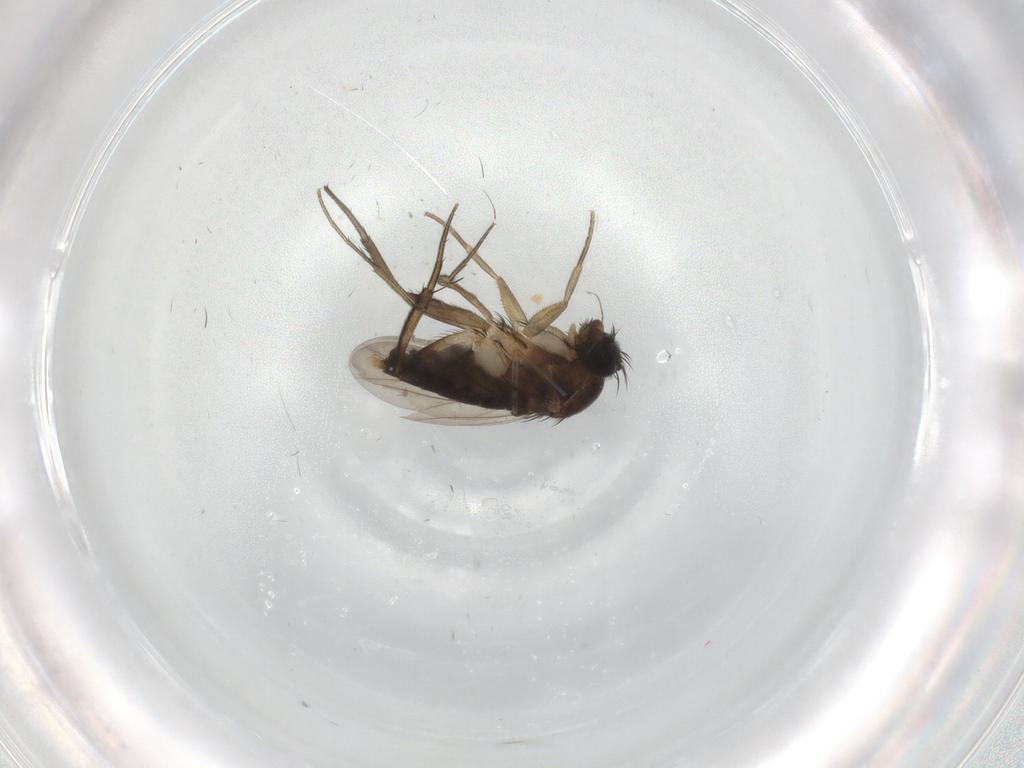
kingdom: Animalia
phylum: Arthropoda
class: Insecta
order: Diptera
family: Phoridae
